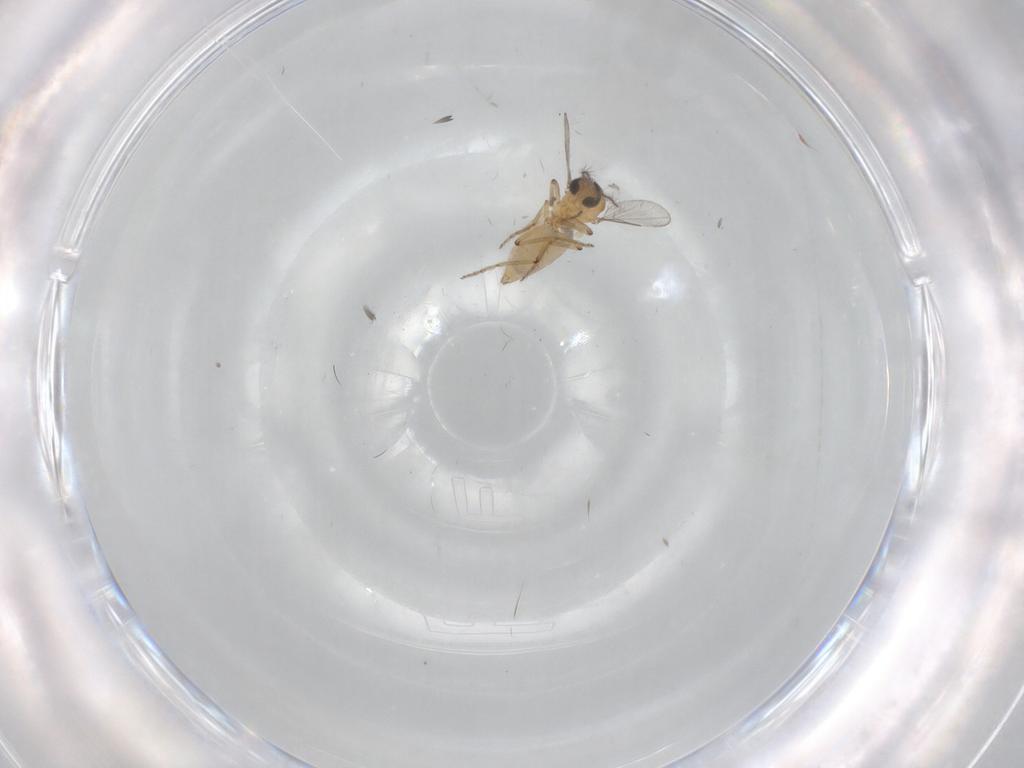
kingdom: Animalia
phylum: Arthropoda
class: Insecta
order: Diptera
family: Ceratopogonidae
